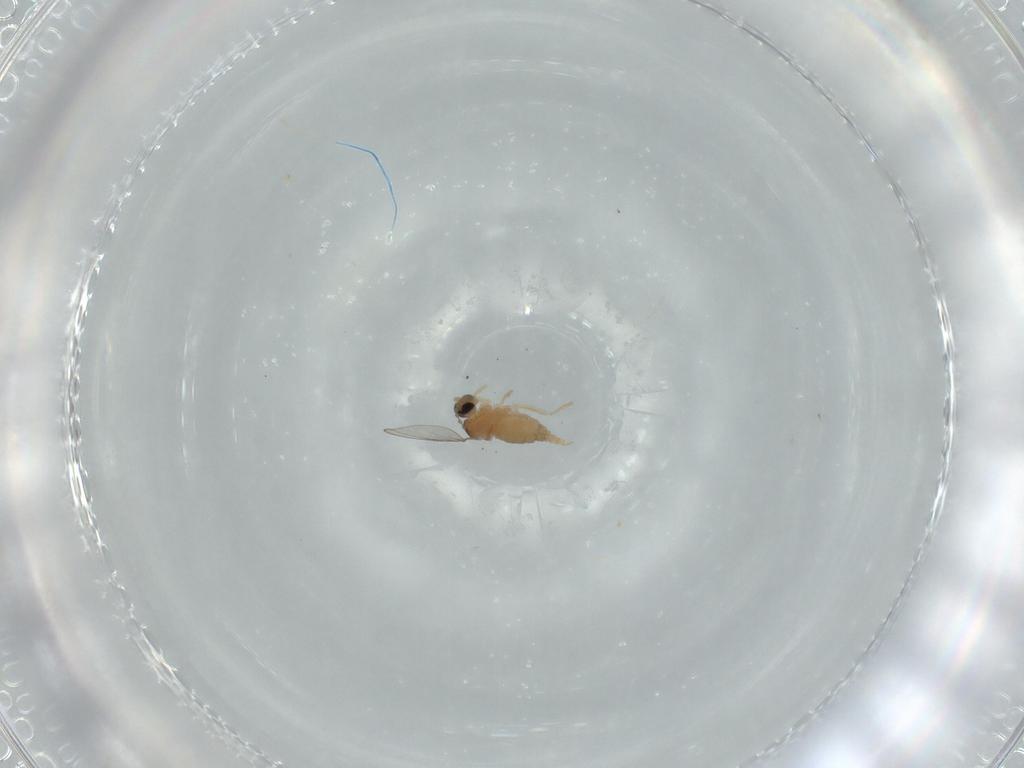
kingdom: Animalia
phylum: Arthropoda
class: Insecta
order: Diptera
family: Cecidomyiidae
